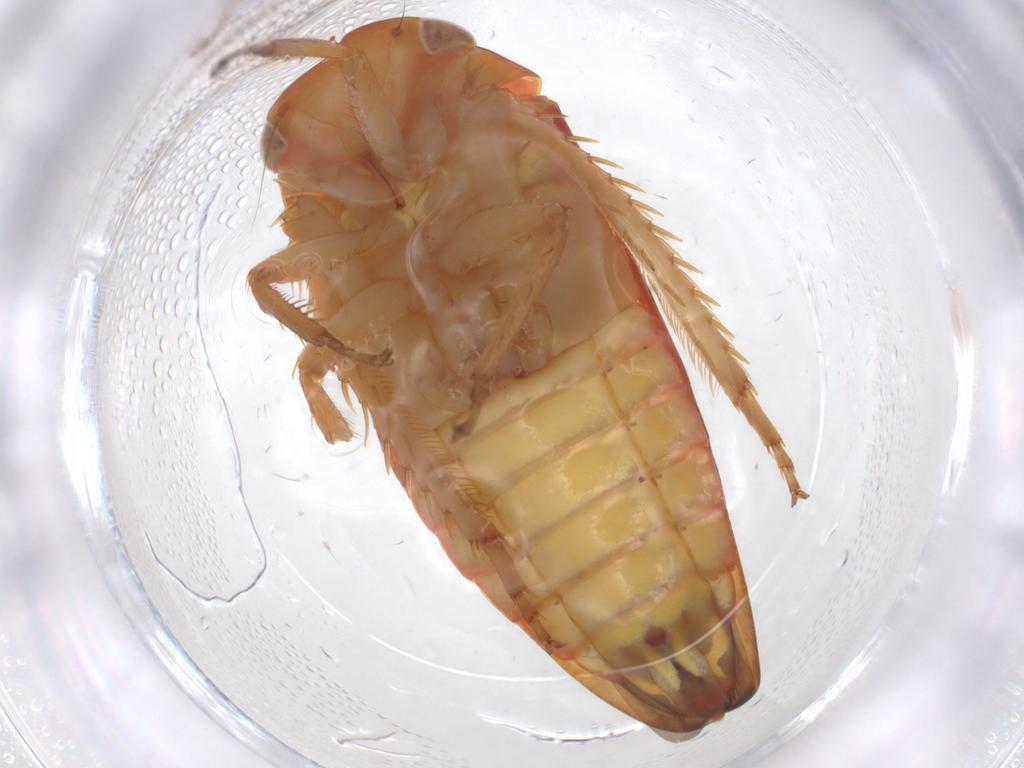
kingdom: Animalia
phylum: Arthropoda
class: Insecta
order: Hemiptera
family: Cicadellidae
